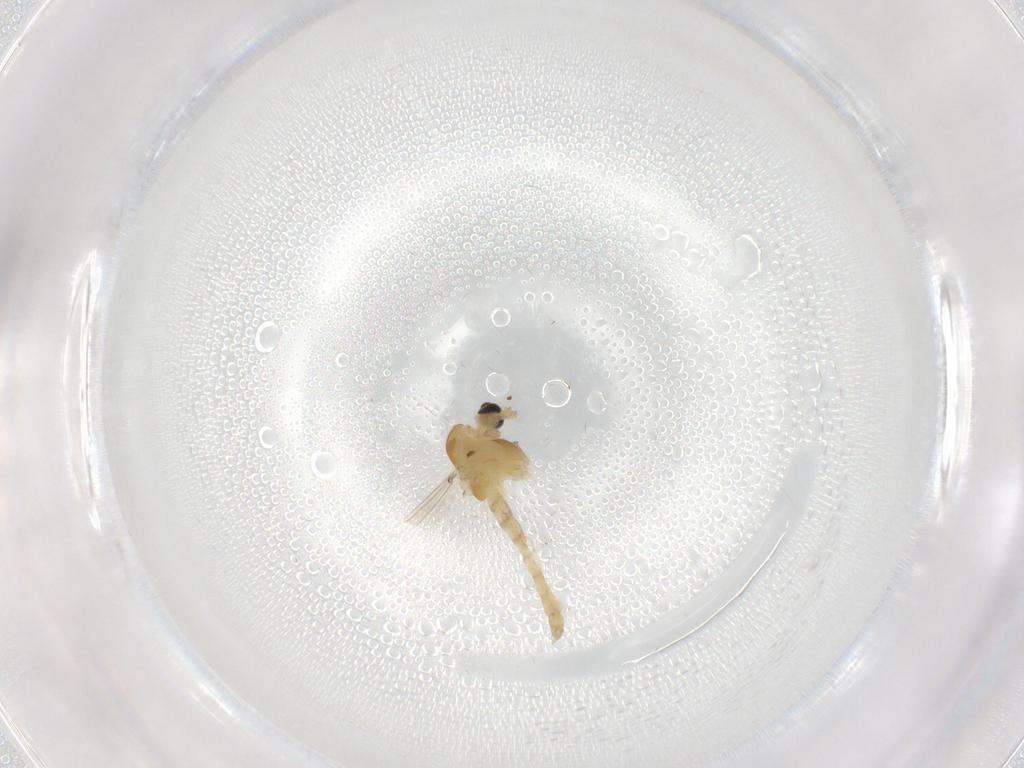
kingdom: Animalia
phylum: Arthropoda
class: Insecta
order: Diptera
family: Chironomidae
